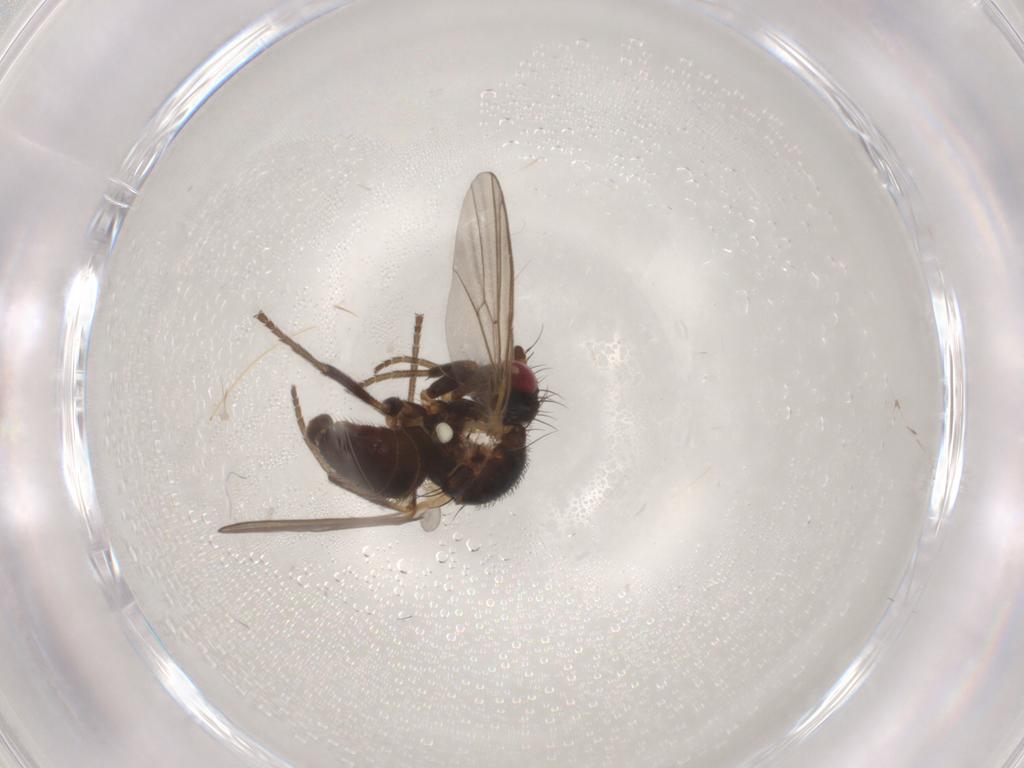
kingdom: Animalia
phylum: Arthropoda
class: Insecta
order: Diptera
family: Agromyzidae
